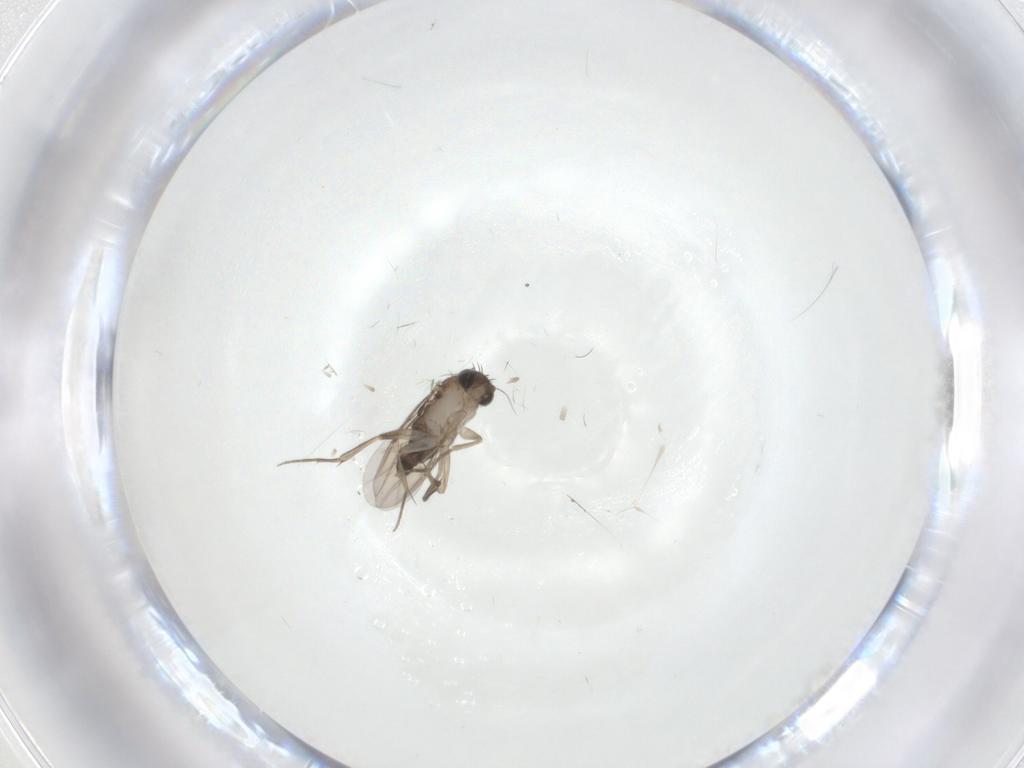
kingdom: Animalia
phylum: Arthropoda
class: Insecta
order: Diptera
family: Phoridae
